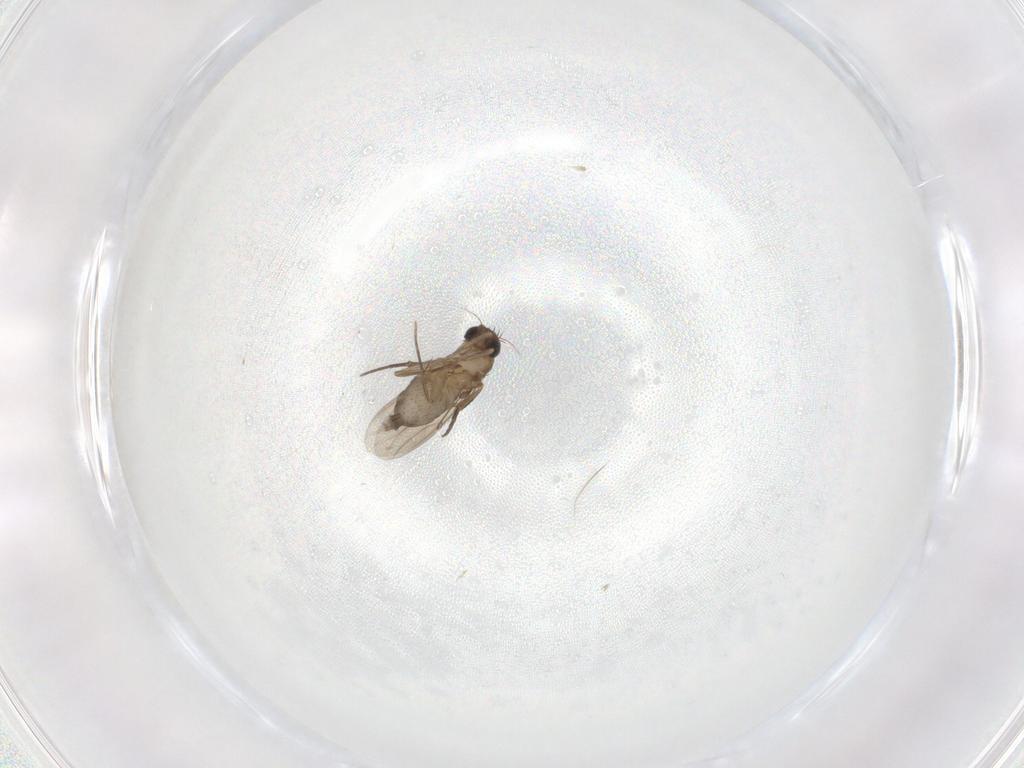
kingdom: Animalia
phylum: Arthropoda
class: Insecta
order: Diptera
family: Phoridae
